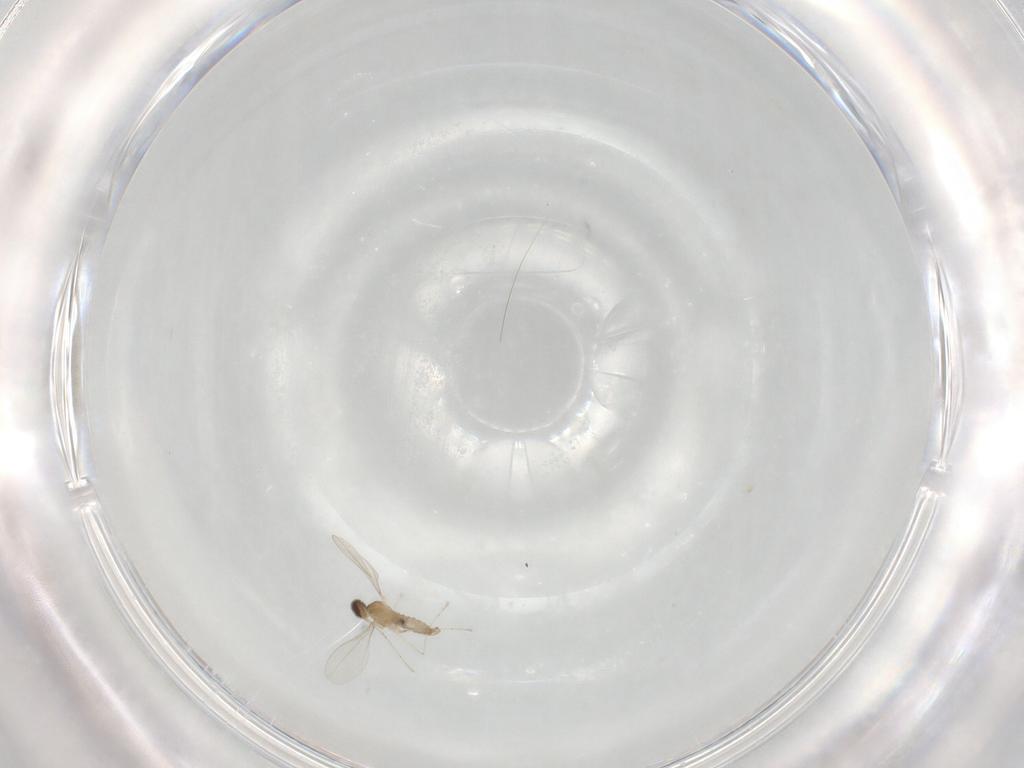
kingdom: Animalia
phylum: Arthropoda
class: Insecta
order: Diptera
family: Cecidomyiidae
